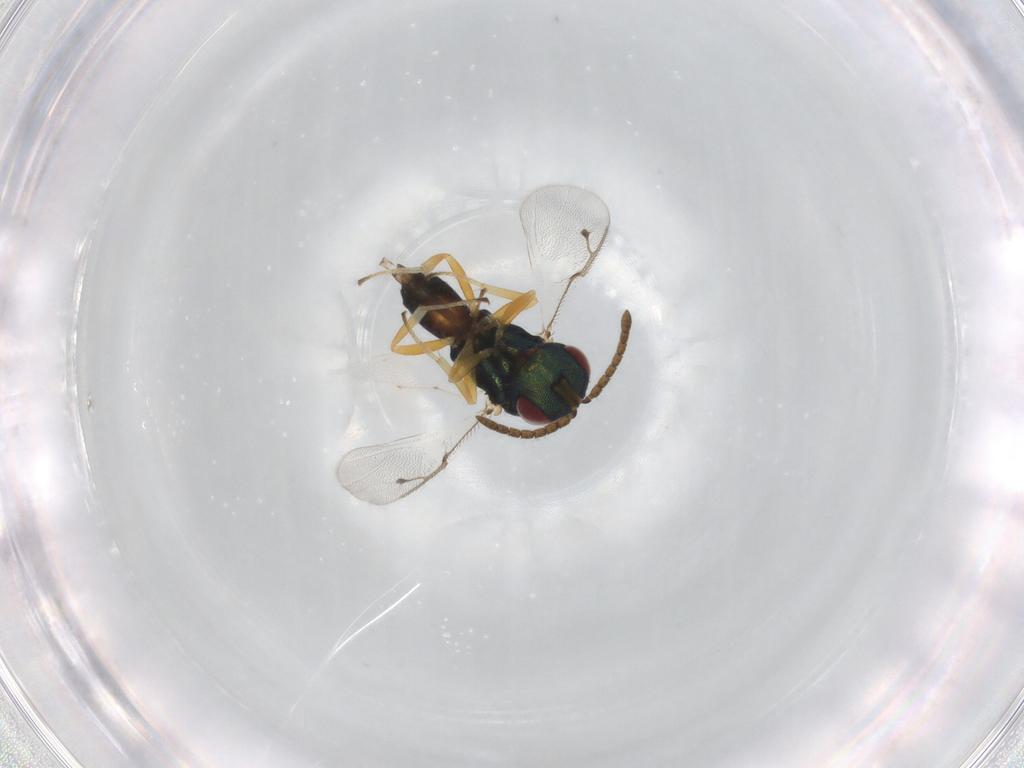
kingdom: Animalia
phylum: Arthropoda
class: Insecta
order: Hymenoptera
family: Pteromalidae
